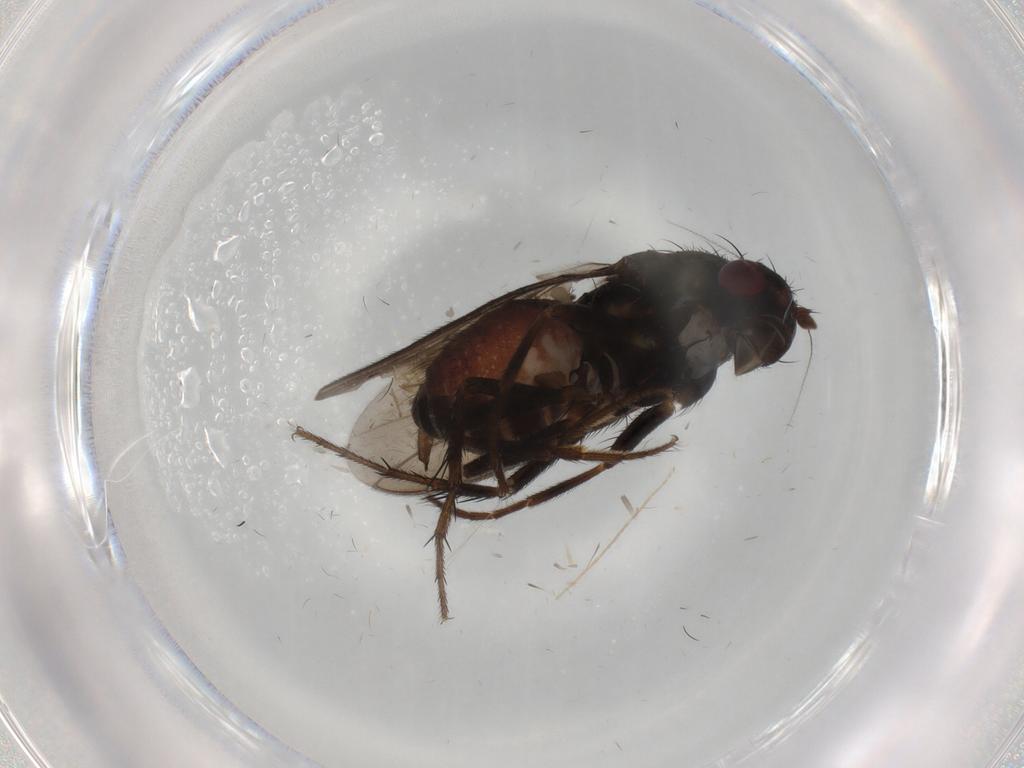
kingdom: Animalia
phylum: Arthropoda
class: Insecta
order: Diptera
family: Sphaeroceridae
